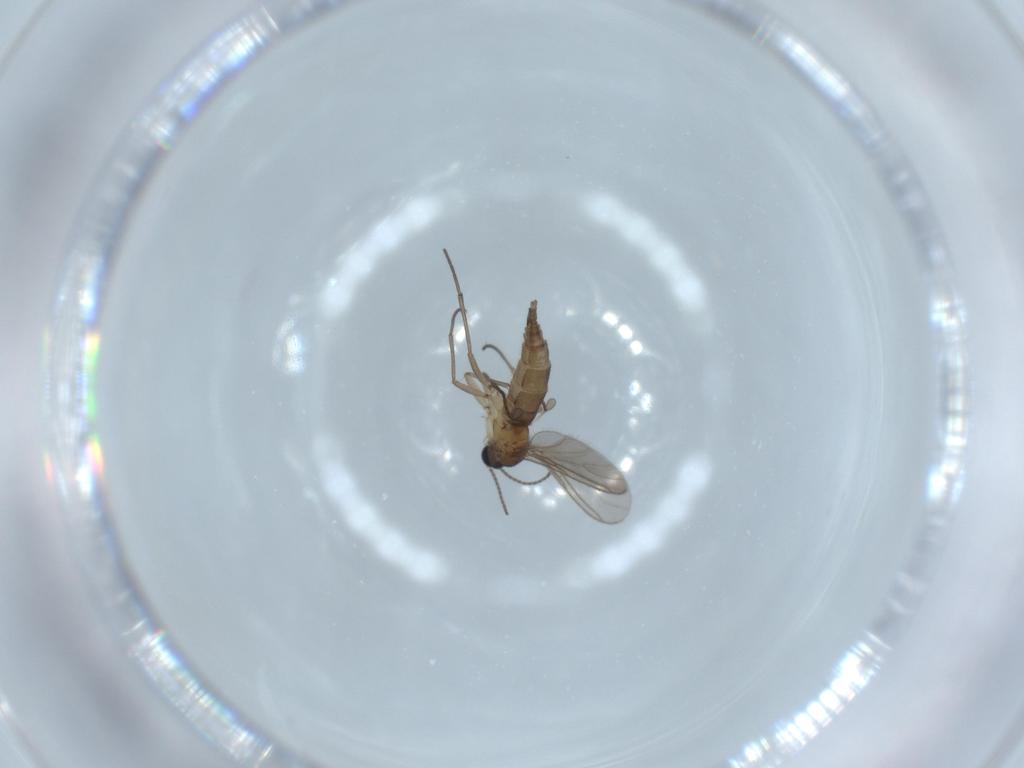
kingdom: Animalia
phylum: Arthropoda
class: Insecta
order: Diptera
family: Sciaridae
